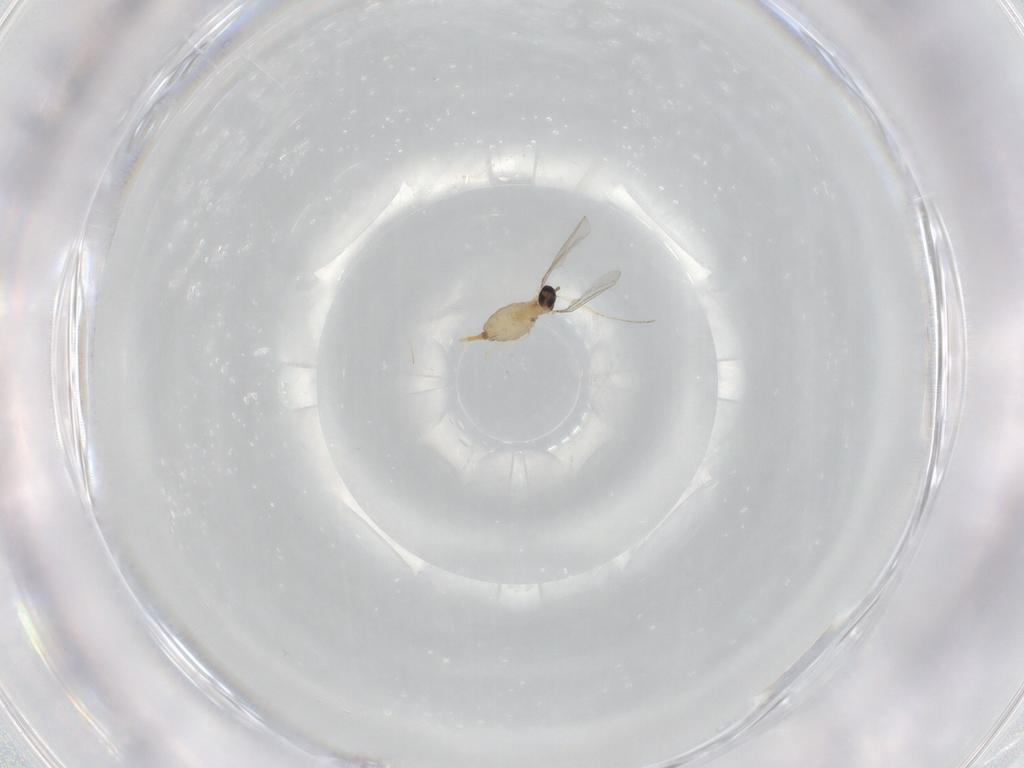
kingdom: Animalia
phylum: Arthropoda
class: Insecta
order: Diptera
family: Cecidomyiidae
